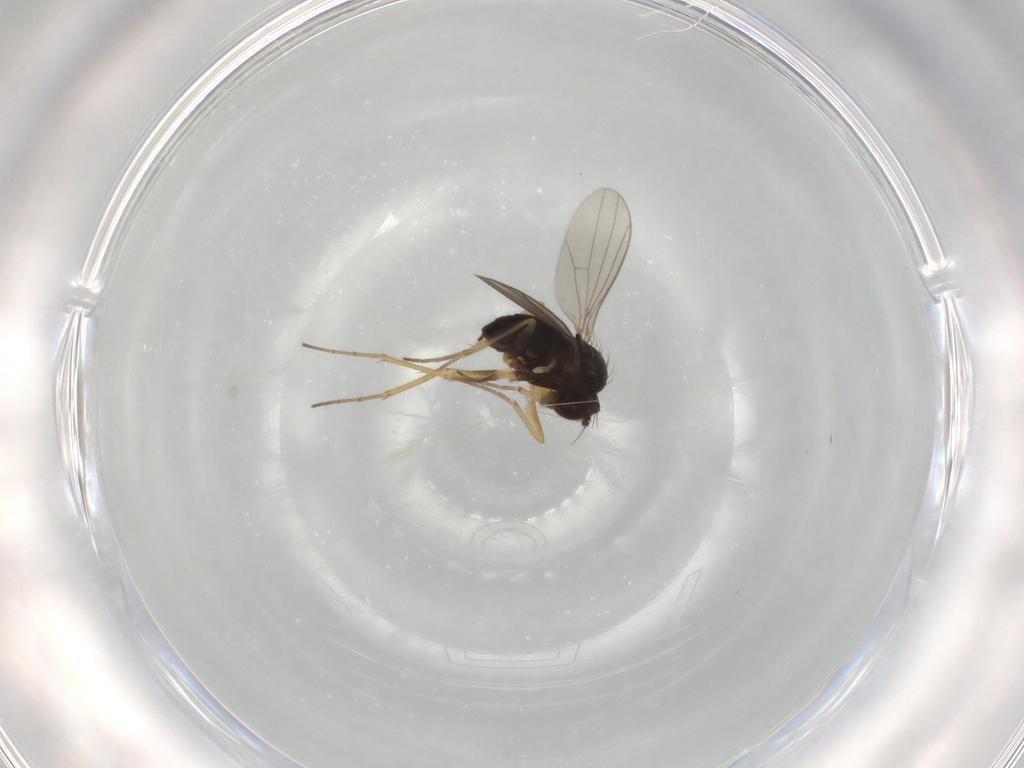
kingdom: Animalia
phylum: Arthropoda
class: Insecta
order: Diptera
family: Dolichopodidae
